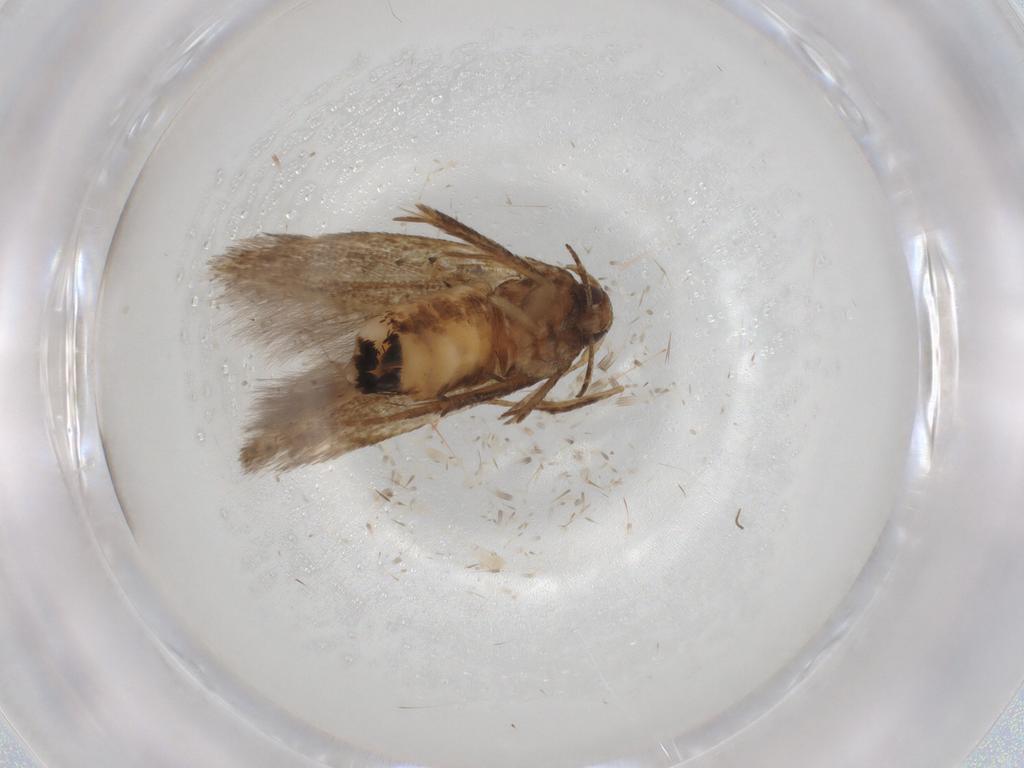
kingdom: Animalia
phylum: Arthropoda
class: Insecta
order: Lepidoptera
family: Cosmopterigidae
